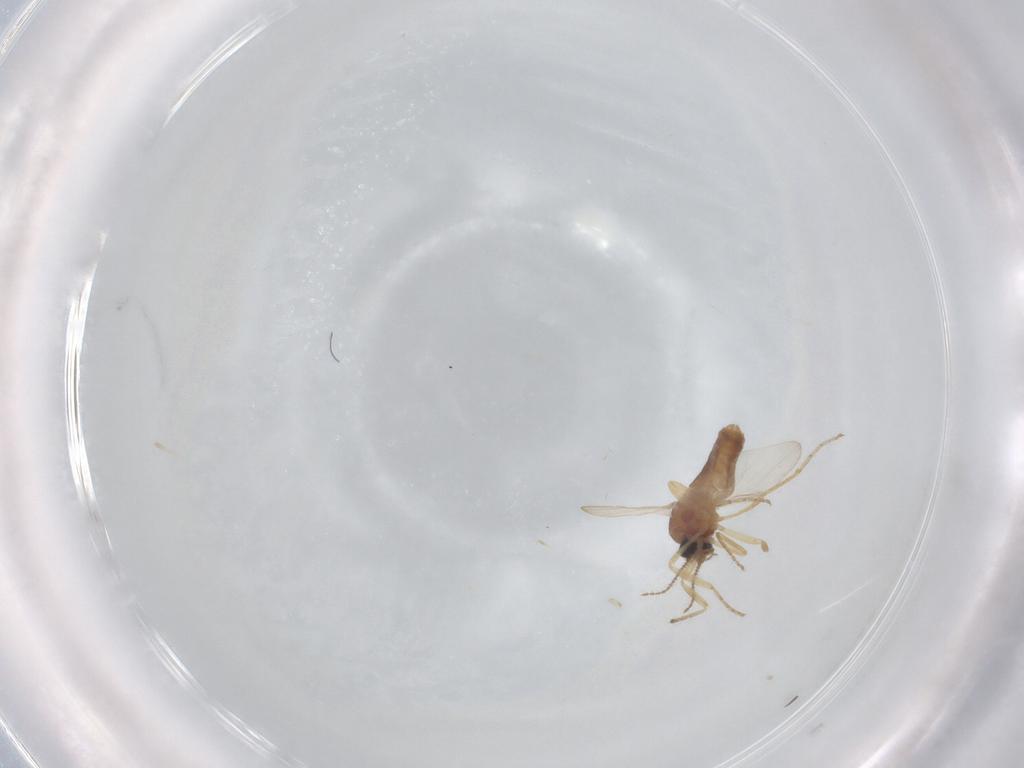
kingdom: Animalia
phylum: Arthropoda
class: Insecta
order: Diptera
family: Ceratopogonidae
